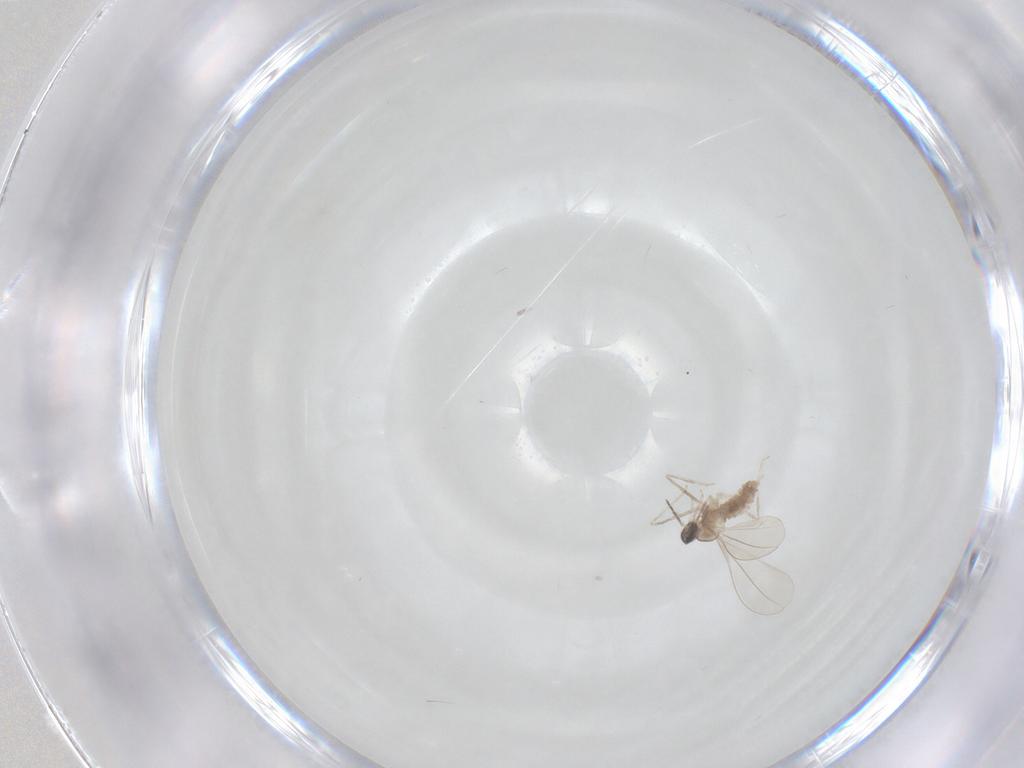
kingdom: Animalia
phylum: Arthropoda
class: Insecta
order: Diptera
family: Cecidomyiidae
